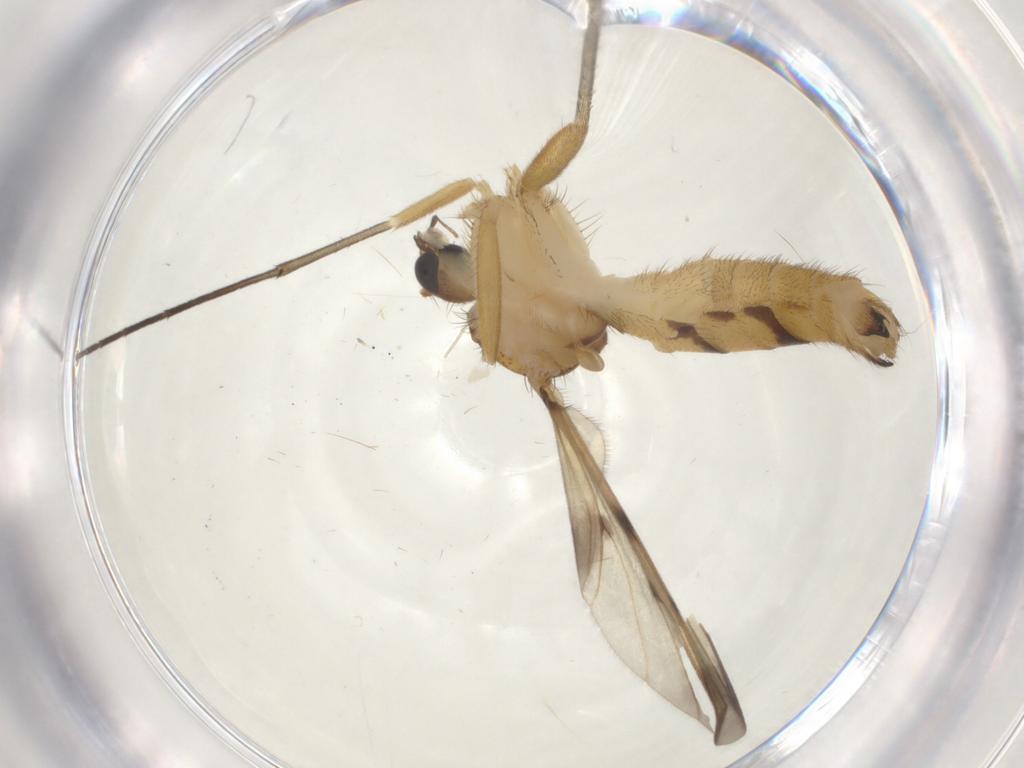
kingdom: Animalia
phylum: Arthropoda
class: Insecta
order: Diptera
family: Mycetophilidae
